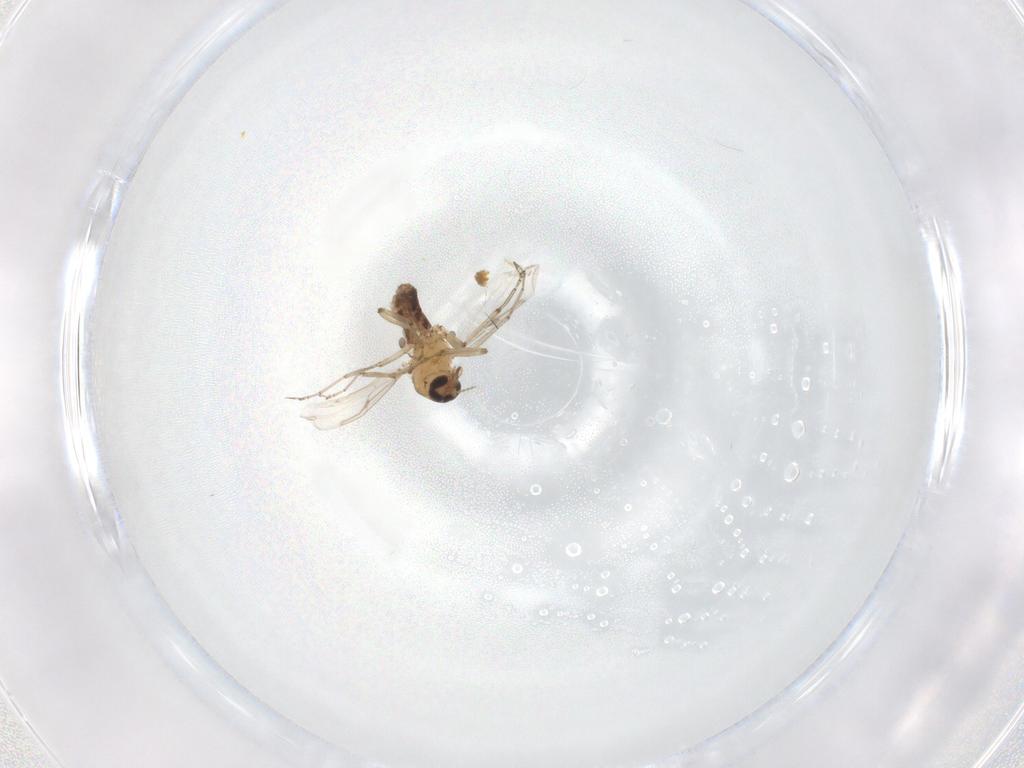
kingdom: Animalia
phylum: Arthropoda
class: Insecta
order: Diptera
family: Ceratopogonidae
